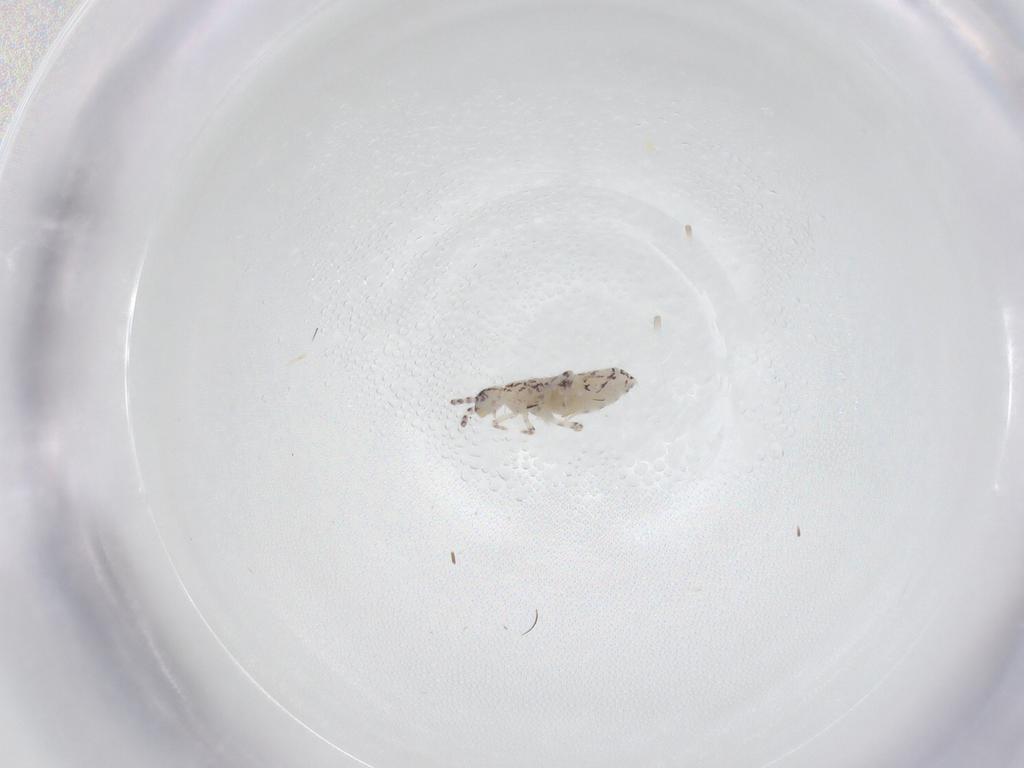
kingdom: Animalia
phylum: Arthropoda
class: Collembola
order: Entomobryomorpha
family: Entomobryidae
